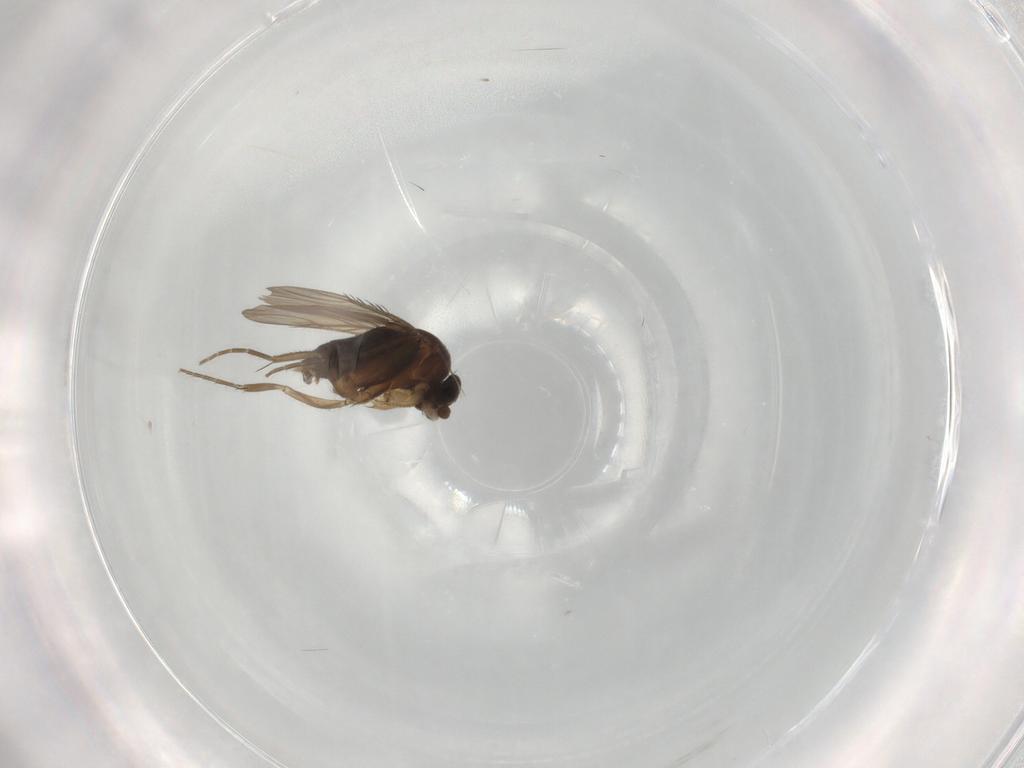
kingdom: Animalia
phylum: Arthropoda
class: Insecta
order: Diptera
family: Phoridae
